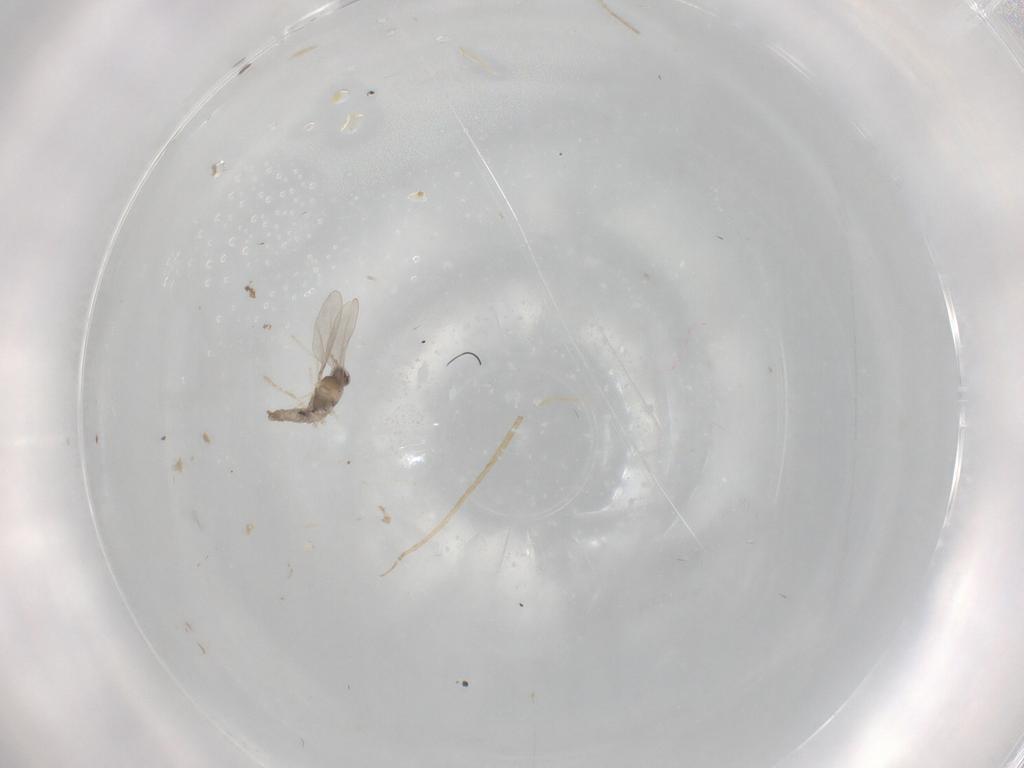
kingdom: Animalia
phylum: Arthropoda
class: Insecta
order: Diptera
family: Cecidomyiidae
